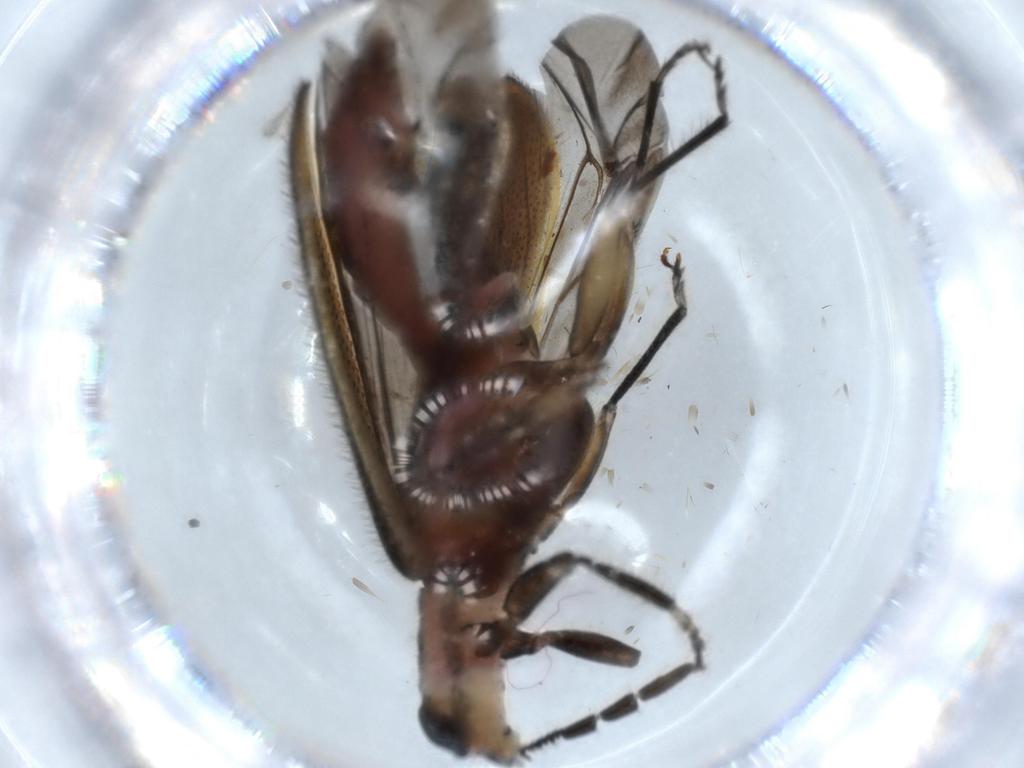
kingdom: Animalia
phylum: Arthropoda
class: Insecta
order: Coleoptera
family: Cleridae
